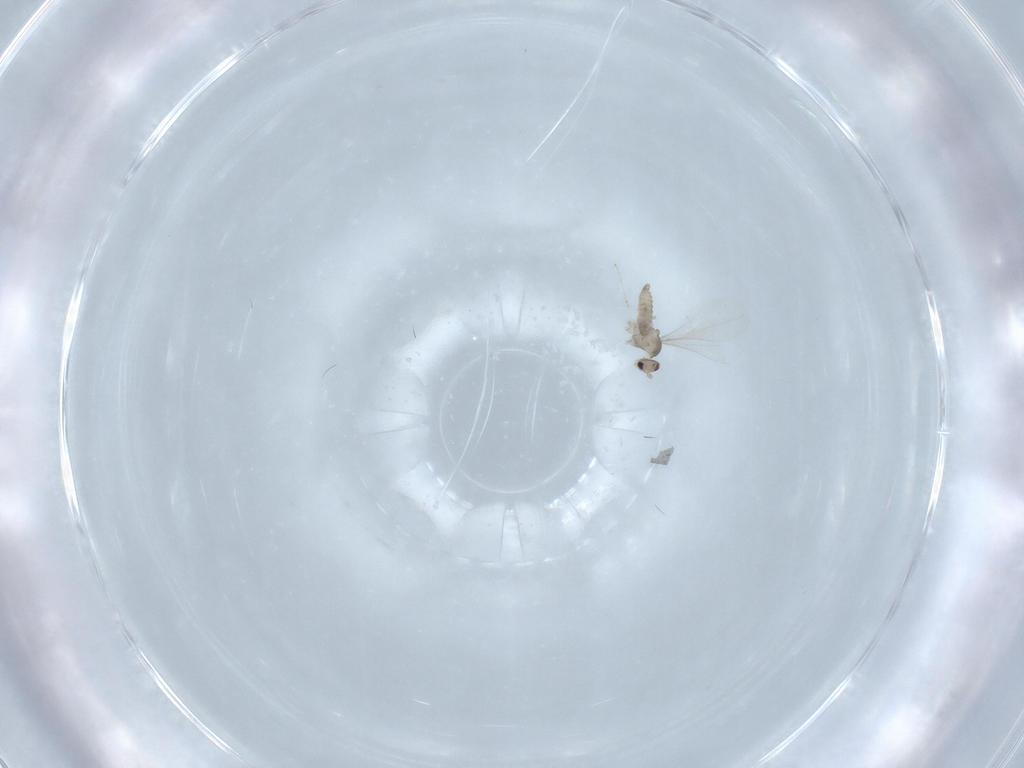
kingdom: Animalia
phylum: Arthropoda
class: Insecta
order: Diptera
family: Cecidomyiidae
